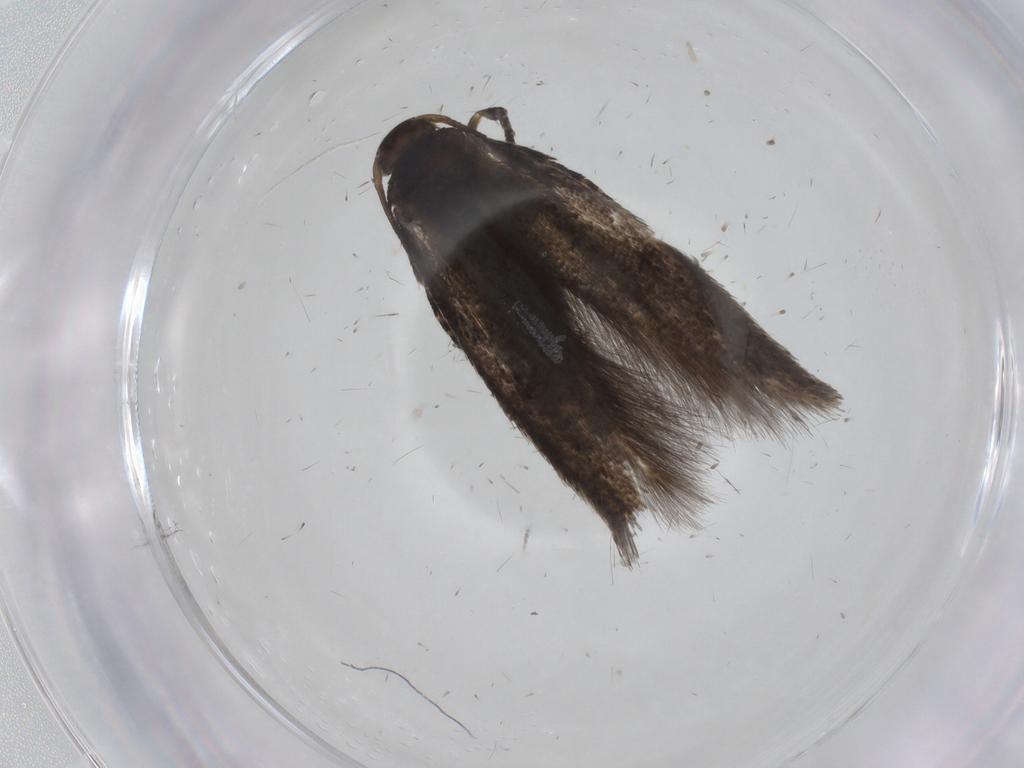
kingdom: Animalia
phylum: Arthropoda
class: Insecta
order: Lepidoptera
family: Elachistidae
